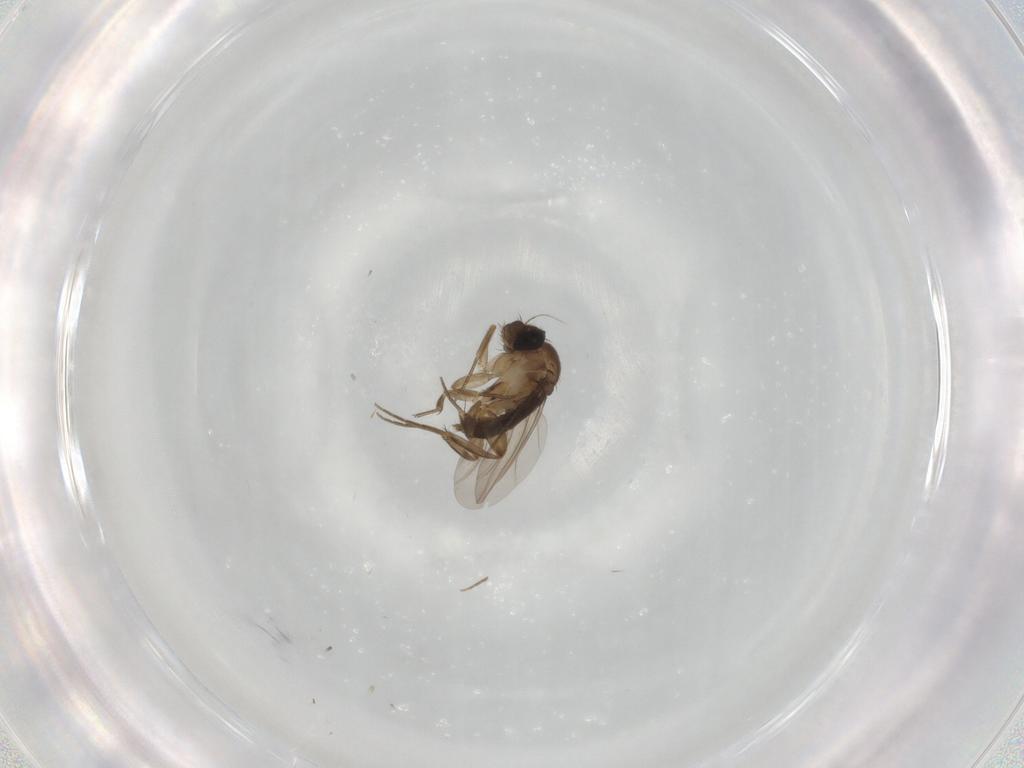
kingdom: Animalia
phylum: Arthropoda
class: Insecta
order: Diptera
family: Phoridae
